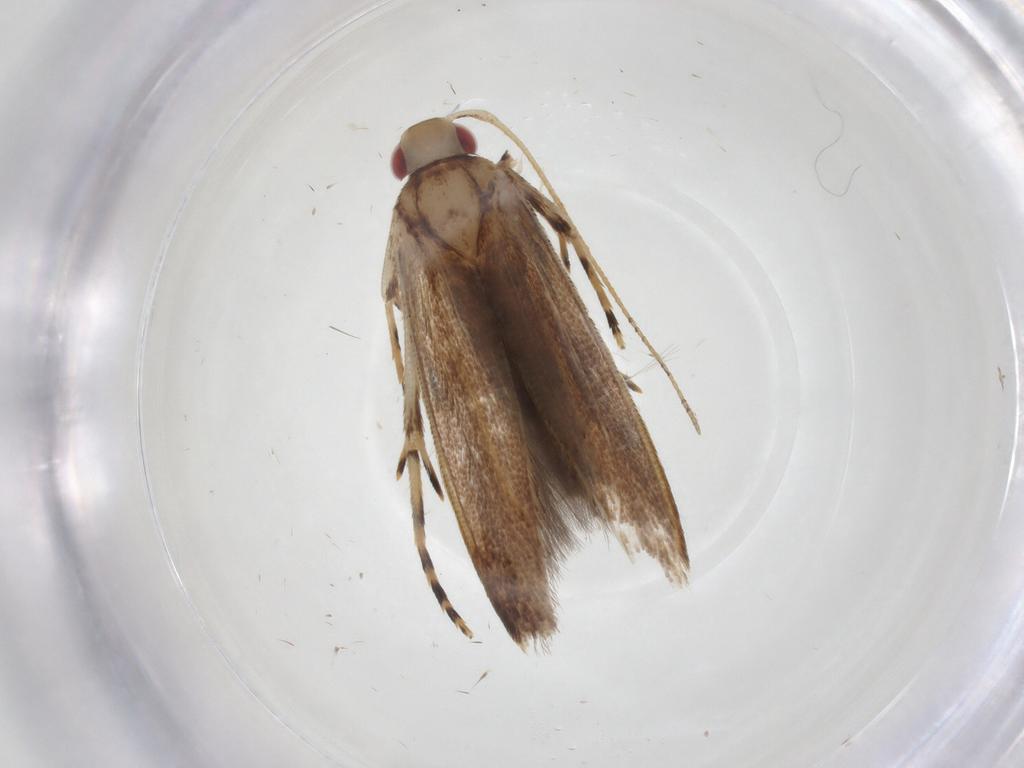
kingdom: Animalia
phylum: Arthropoda
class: Insecta
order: Lepidoptera
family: Cosmopterigidae
